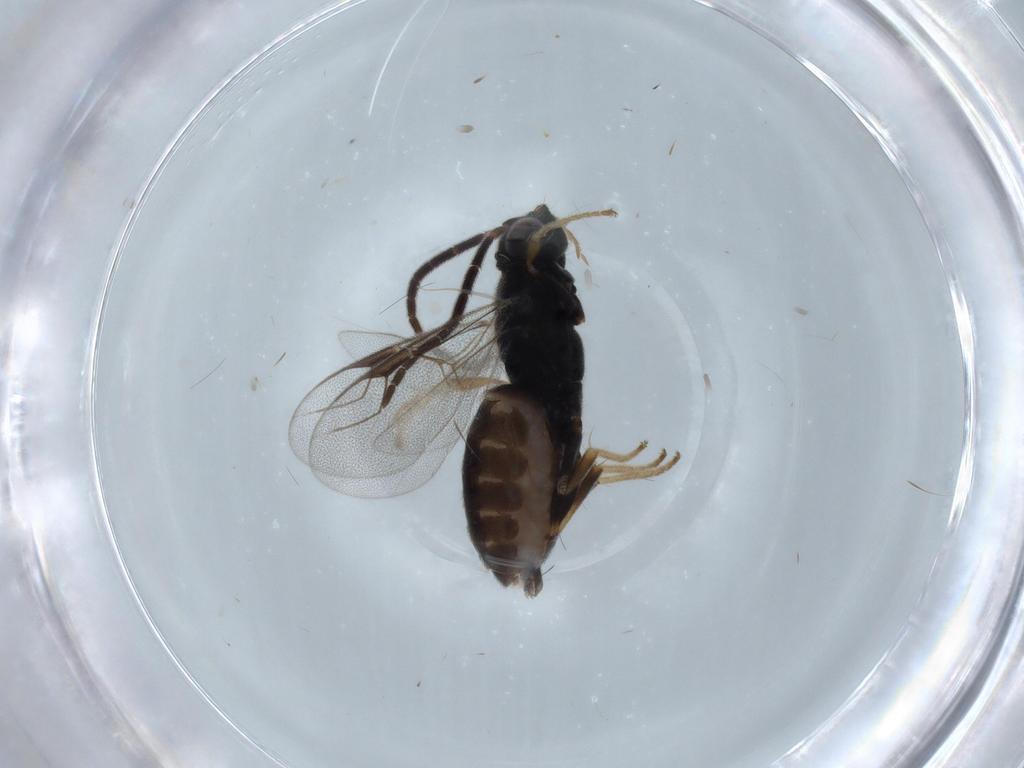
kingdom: Animalia
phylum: Arthropoda
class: Insecta
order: Hymenoptera
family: Dryinidae
